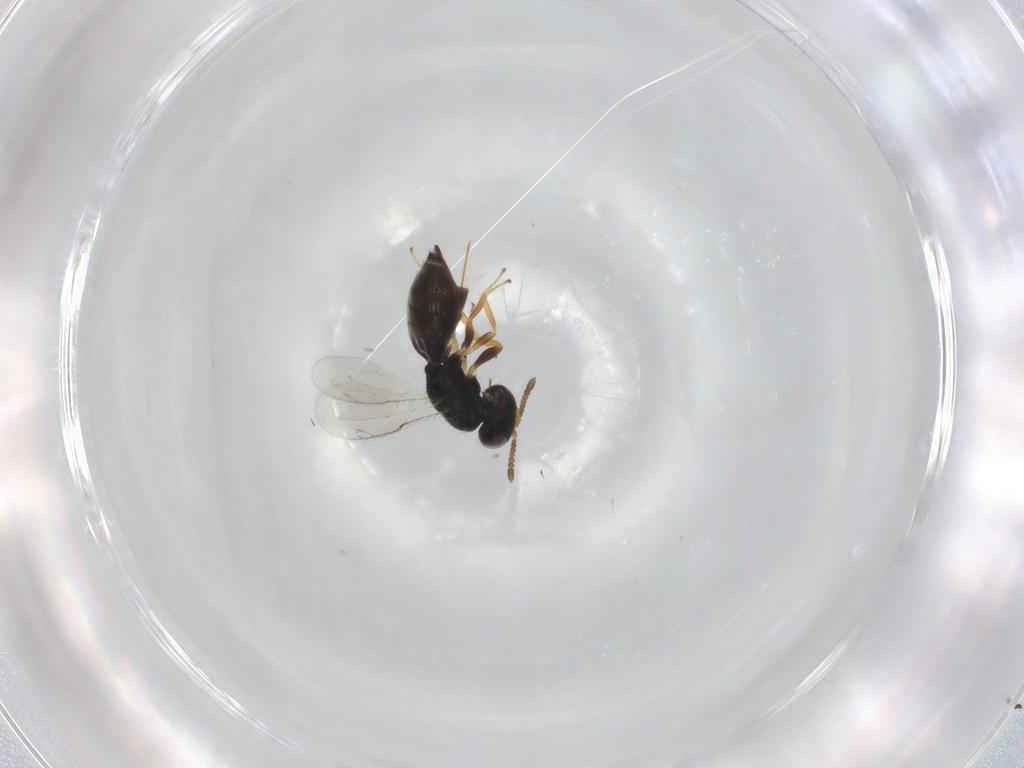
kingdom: Animalia
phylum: Arthropoda
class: Insecta
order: Hymenoptera
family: Pteromalidae
